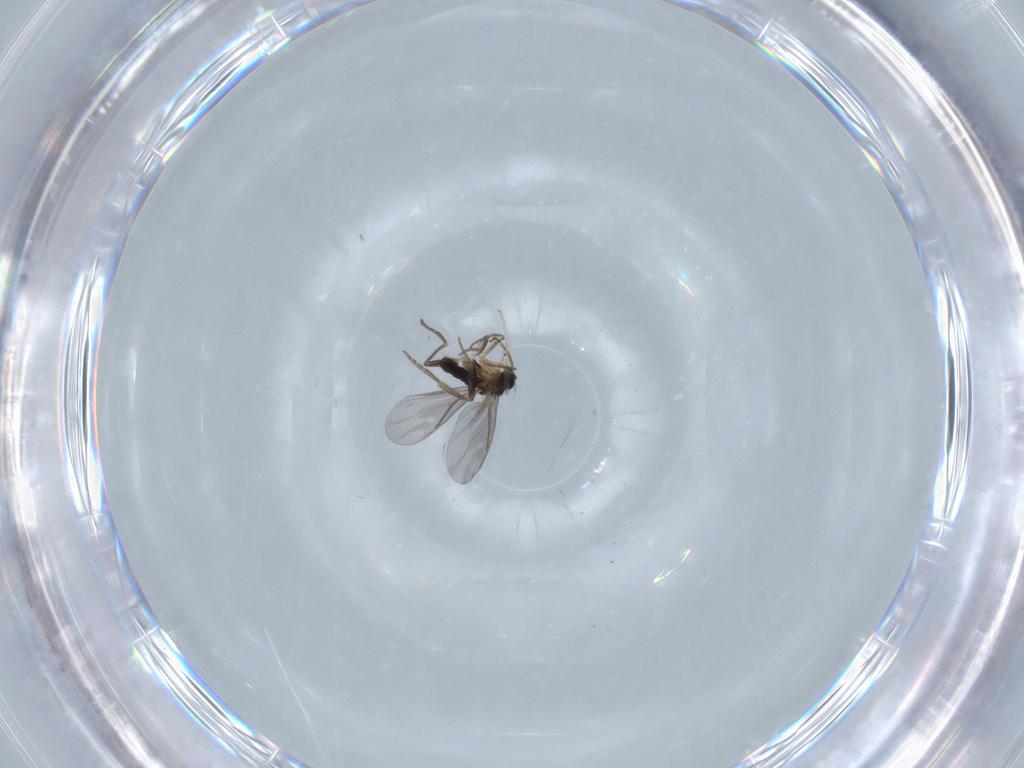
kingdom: Animalia
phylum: Arthropoda
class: Insecta
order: Diptera
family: Chironomidae
